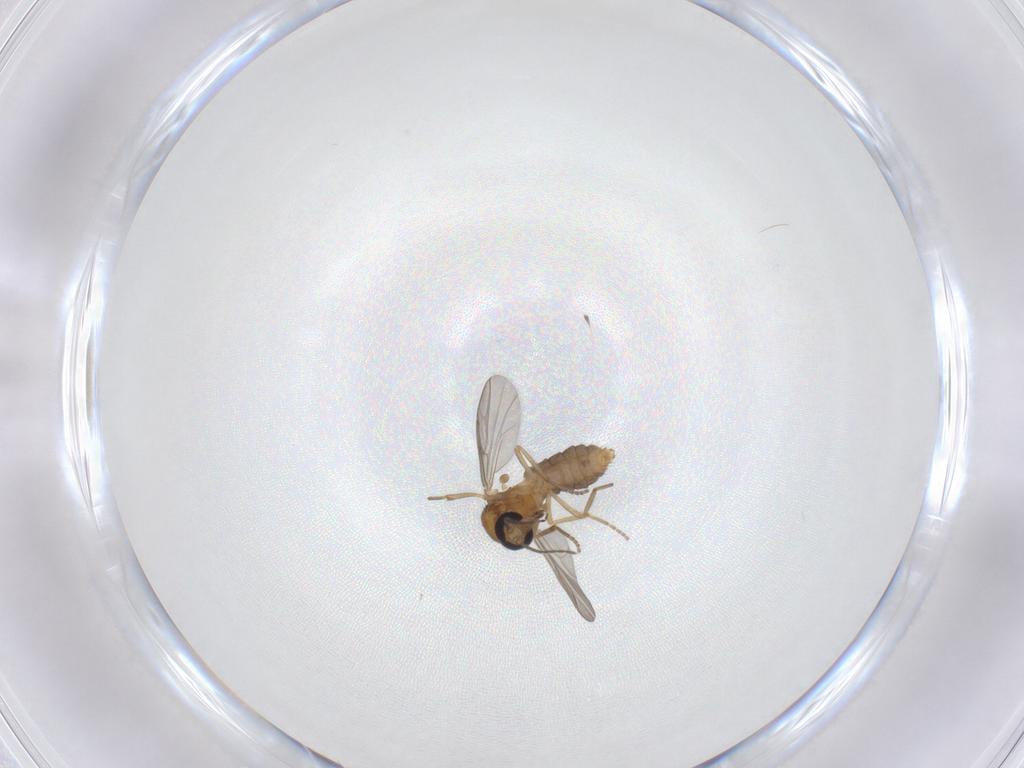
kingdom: Animalia
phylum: Arthropoda
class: Insecta
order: Diptera
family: Ceratopogonidae
